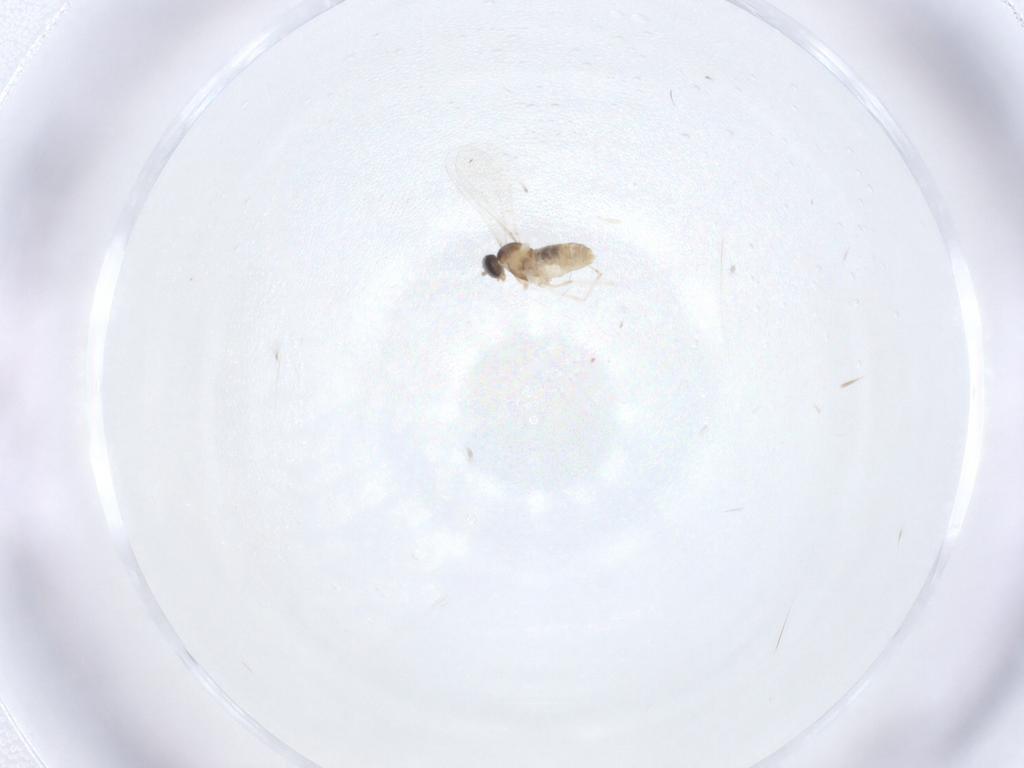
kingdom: Animalia
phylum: Arthropoda
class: Insecta
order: Diptera
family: Cecidomyiidae
